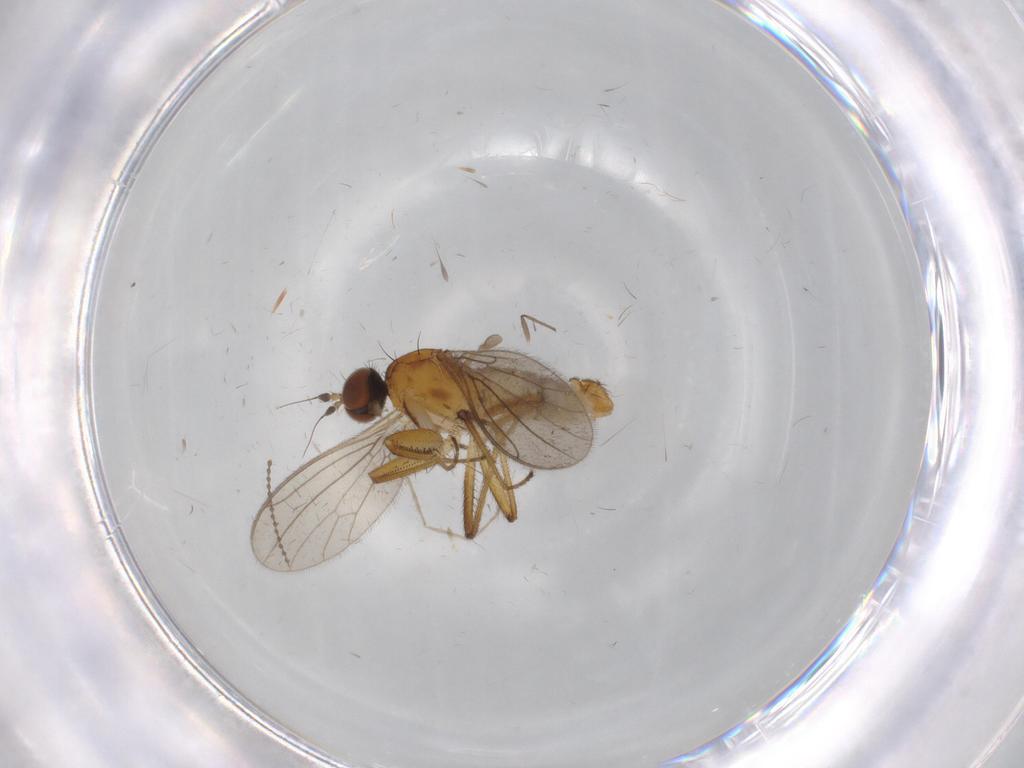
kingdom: Animalia
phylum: Arthropoda
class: Insecta
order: Diptera
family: Empididae
